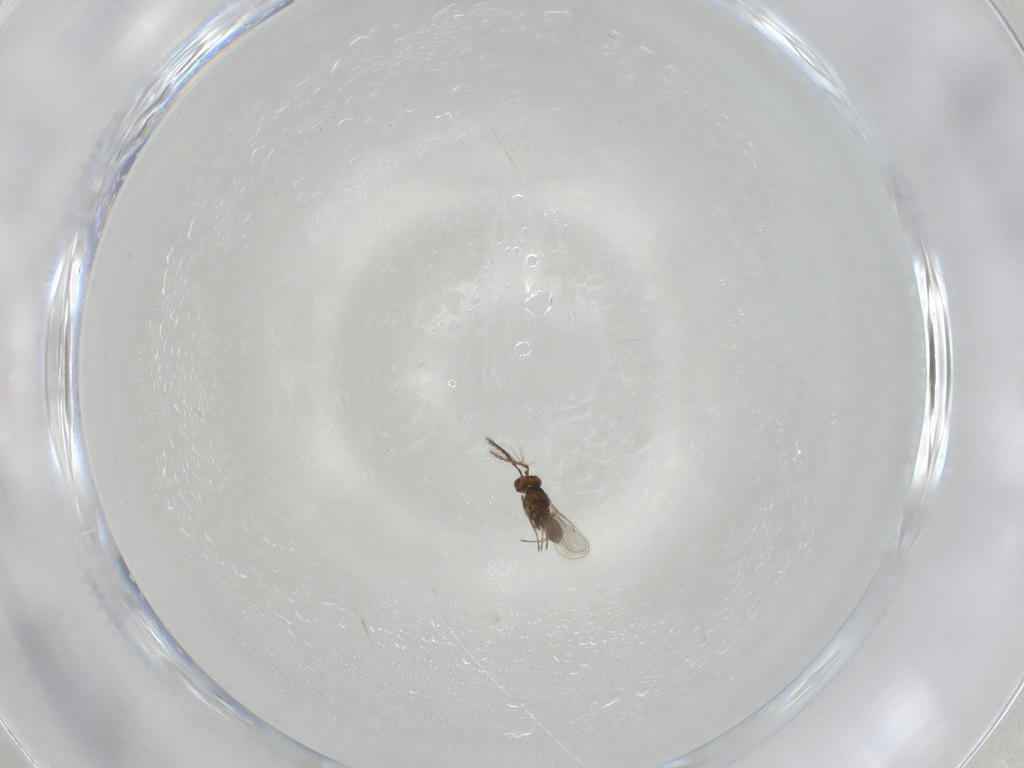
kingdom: Animalia
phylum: Arthropoda
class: Insecta
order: Hymenoptera
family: Eulophidae
